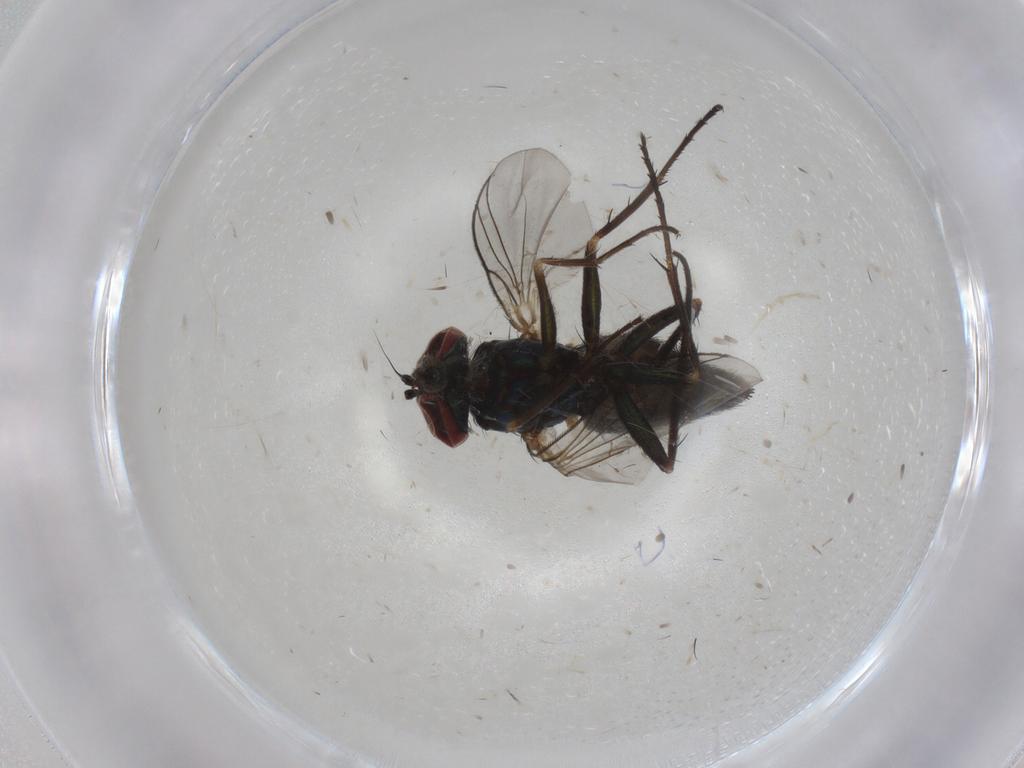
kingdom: Animalia
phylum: Arthropoda
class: Insecta
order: Diptera
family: Dolichopodidae
